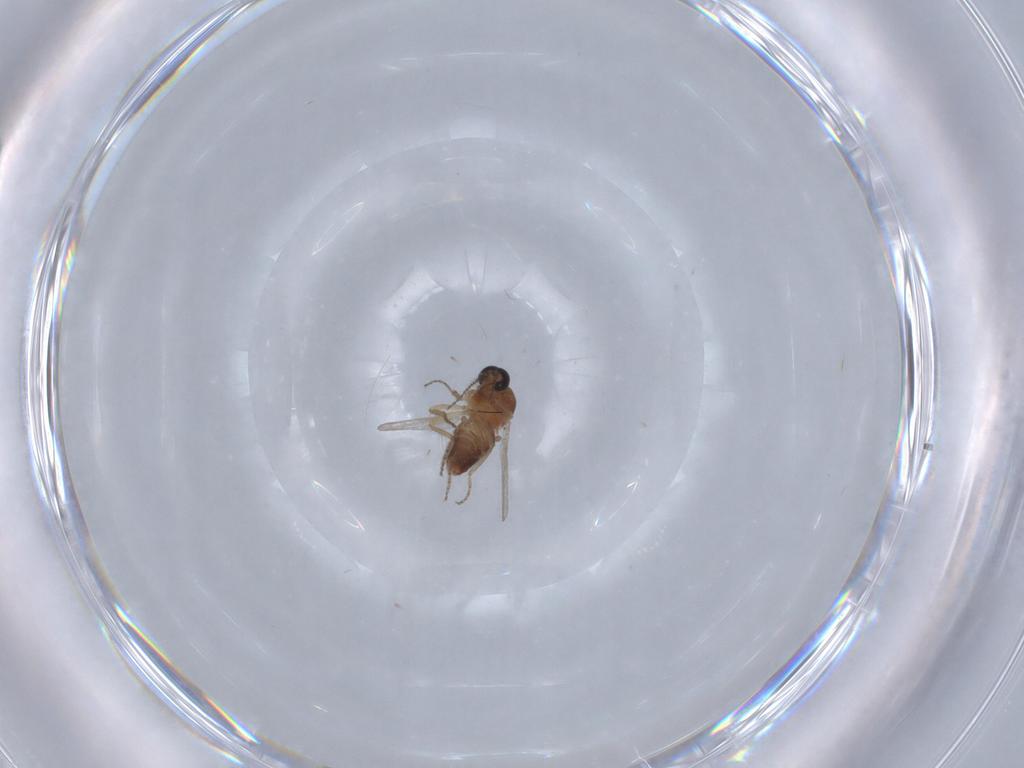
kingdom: Animalia
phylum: Arthropoda
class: Insecta
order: Diptera
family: Ceratopogonidae
